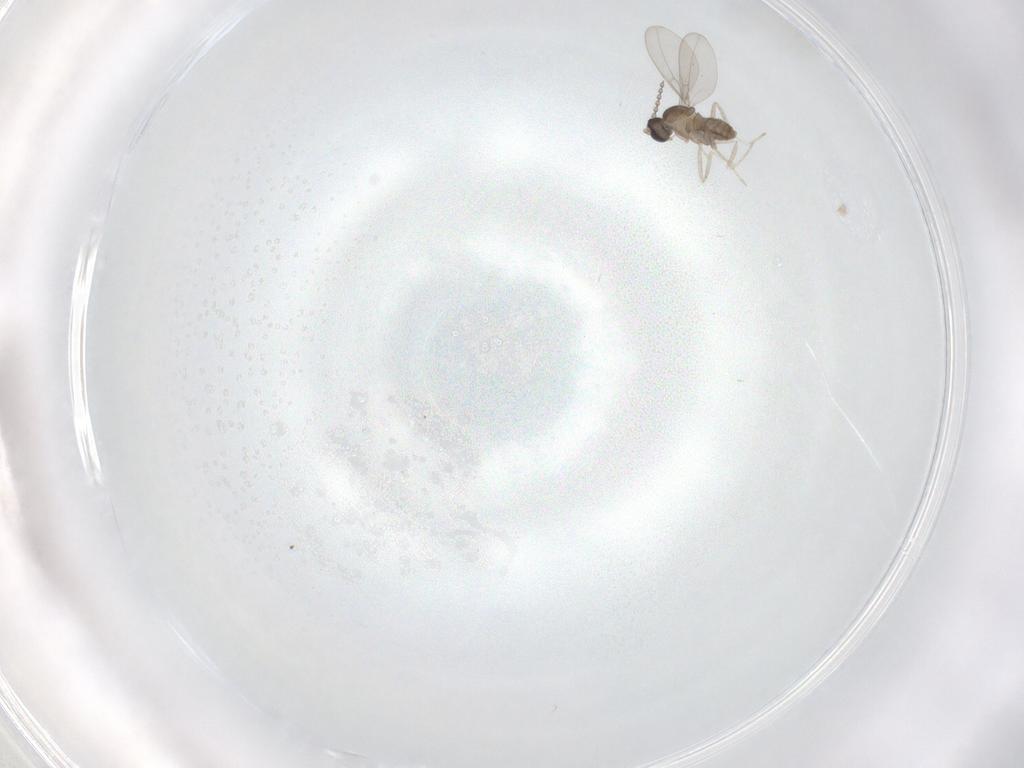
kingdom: Animalia
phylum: Arthropoda
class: Insecta
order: Diptera
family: Cecidomyiidae
